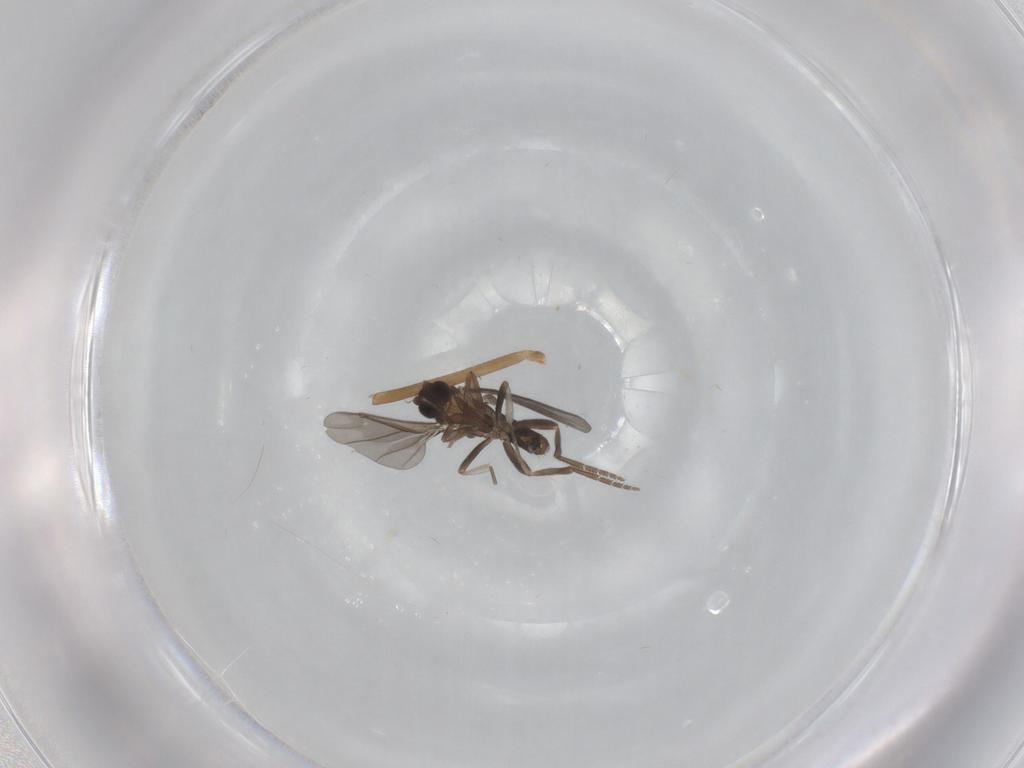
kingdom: Animalia
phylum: Arthropoda
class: Insecta
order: Diptera
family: Chironomidae
